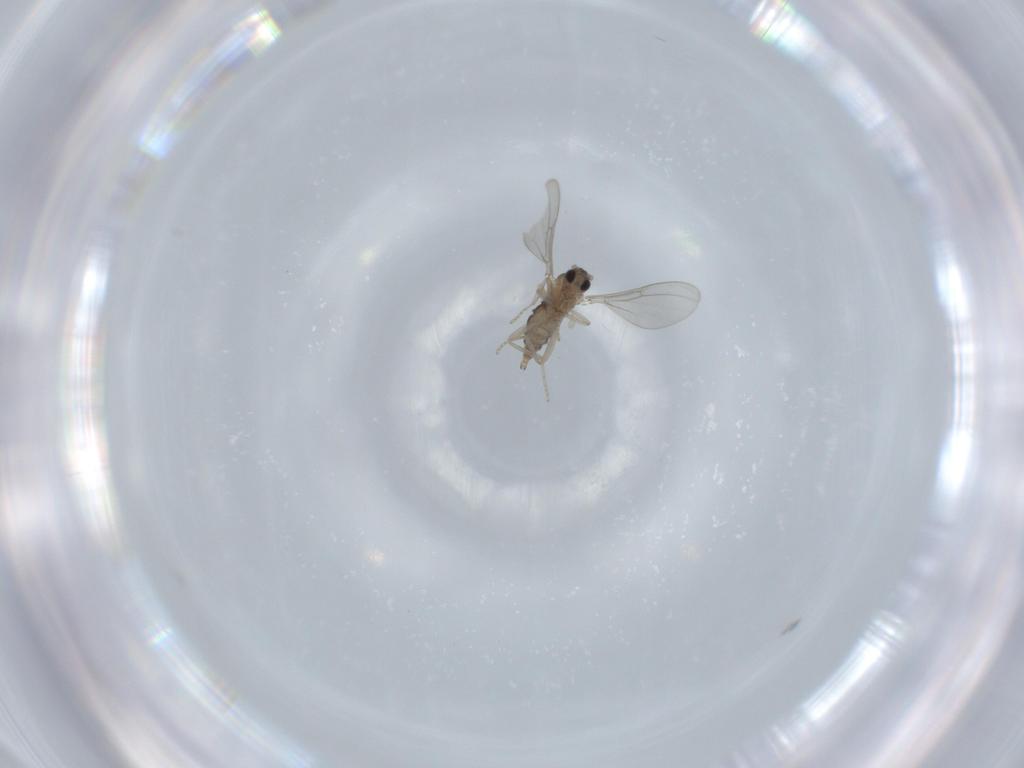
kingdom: Animalia
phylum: Arthropoda
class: Insecta
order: Diptera
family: Cecidomyiidae
